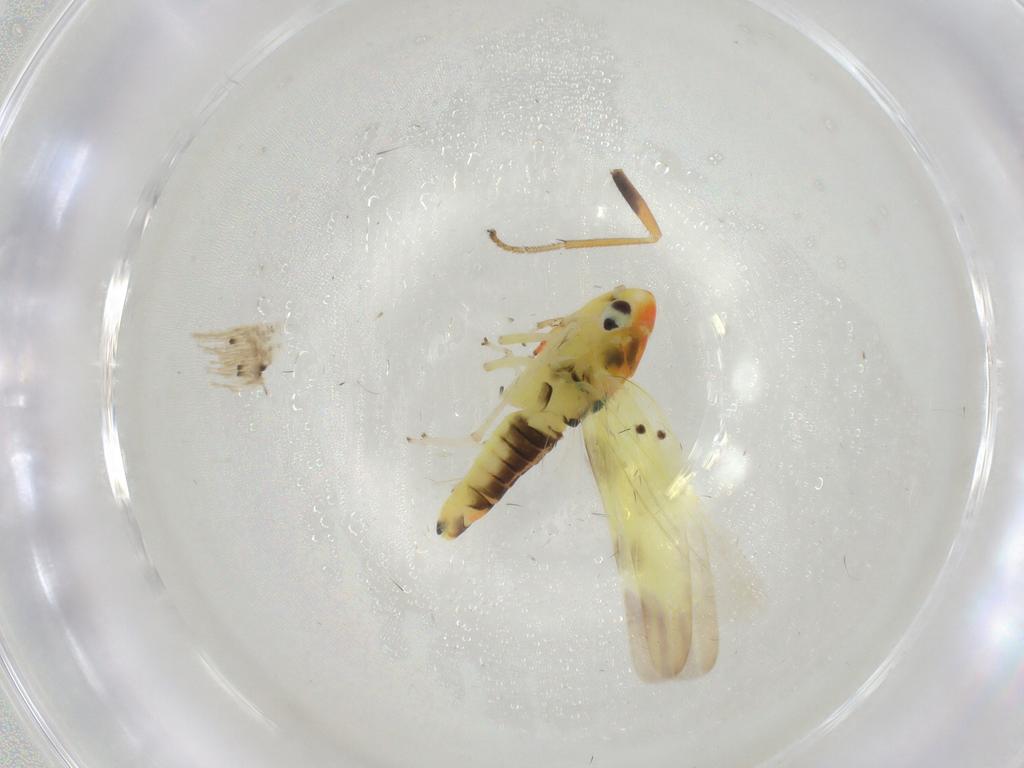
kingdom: Animalia
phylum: Arthropoda
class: Insecta
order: Hemiptera
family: Cicadellidae
